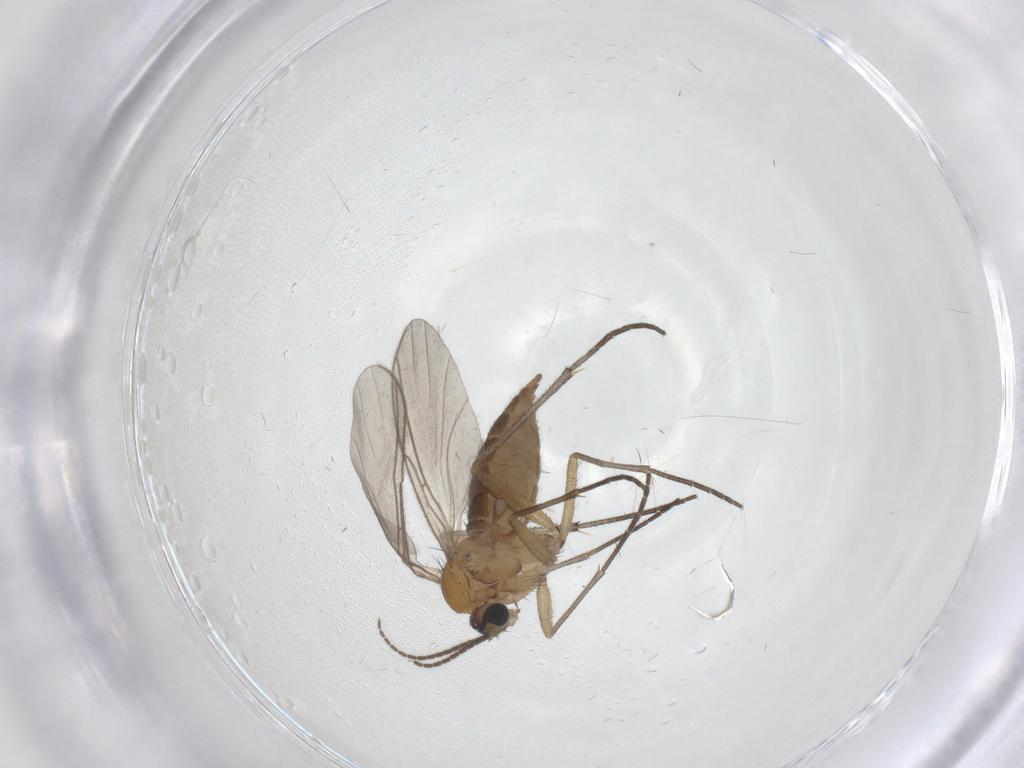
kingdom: Animalia
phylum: Arthropoda
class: Insecta
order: Diptera
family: Sciaridae
